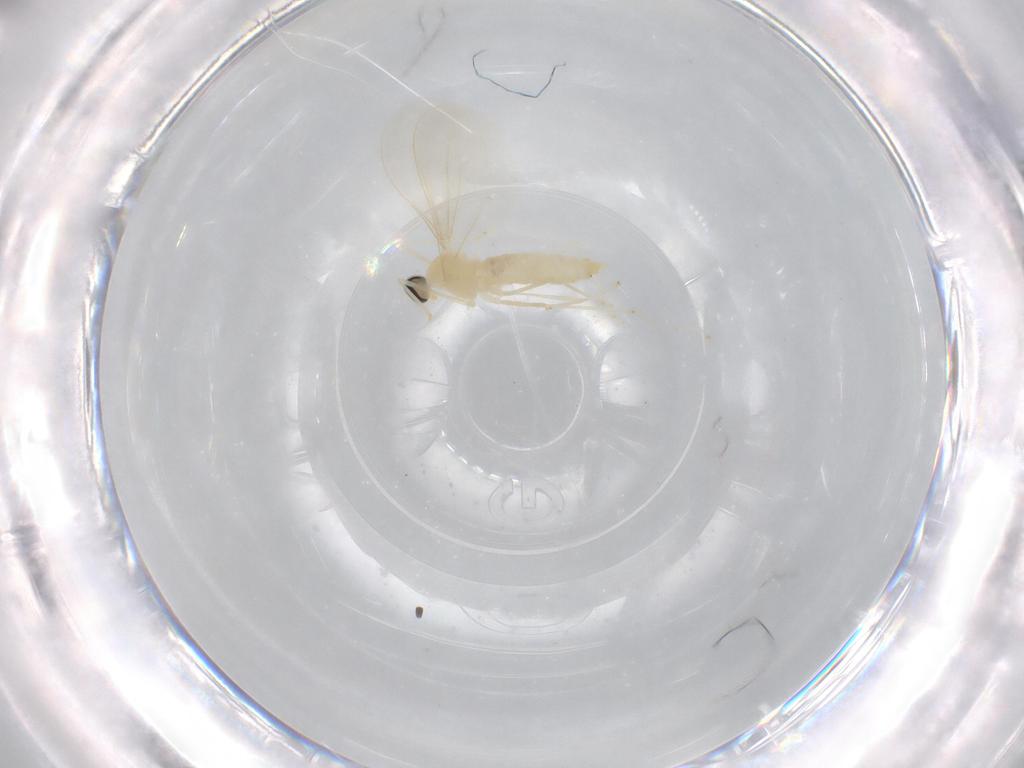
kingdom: Animalia
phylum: Arthropoda
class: Insecta
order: Diptera
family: Cecidomyiidae
